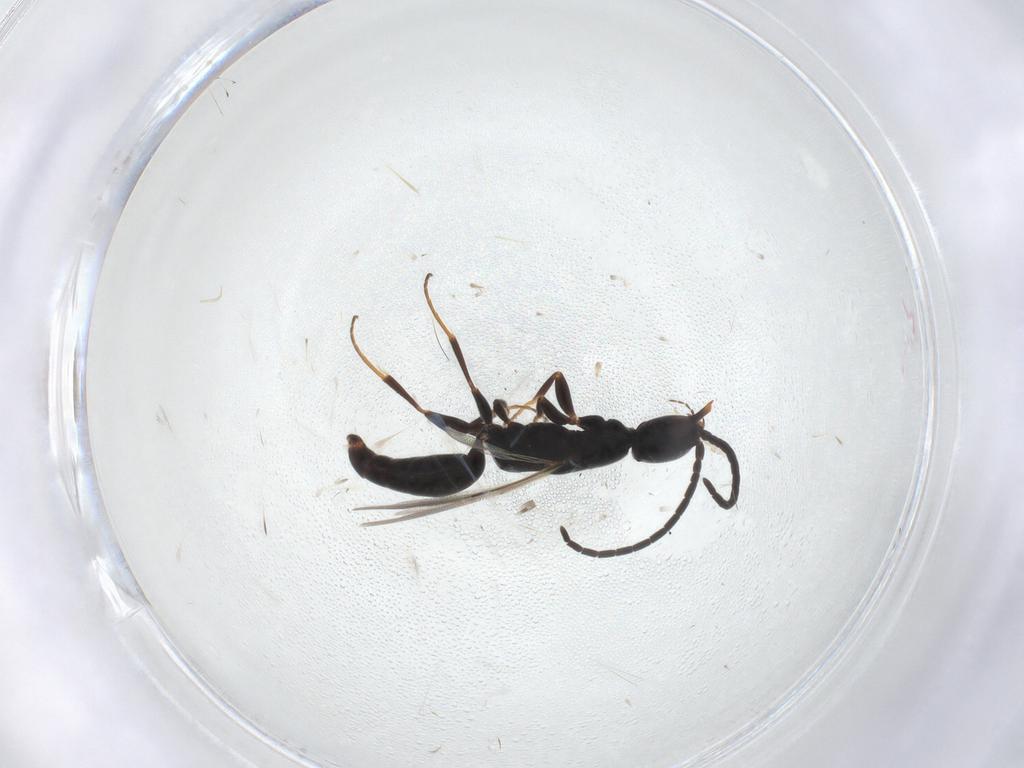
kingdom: Animalia
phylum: Arthropoda
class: Insecta
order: Hymenoptera
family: Bethylidae
